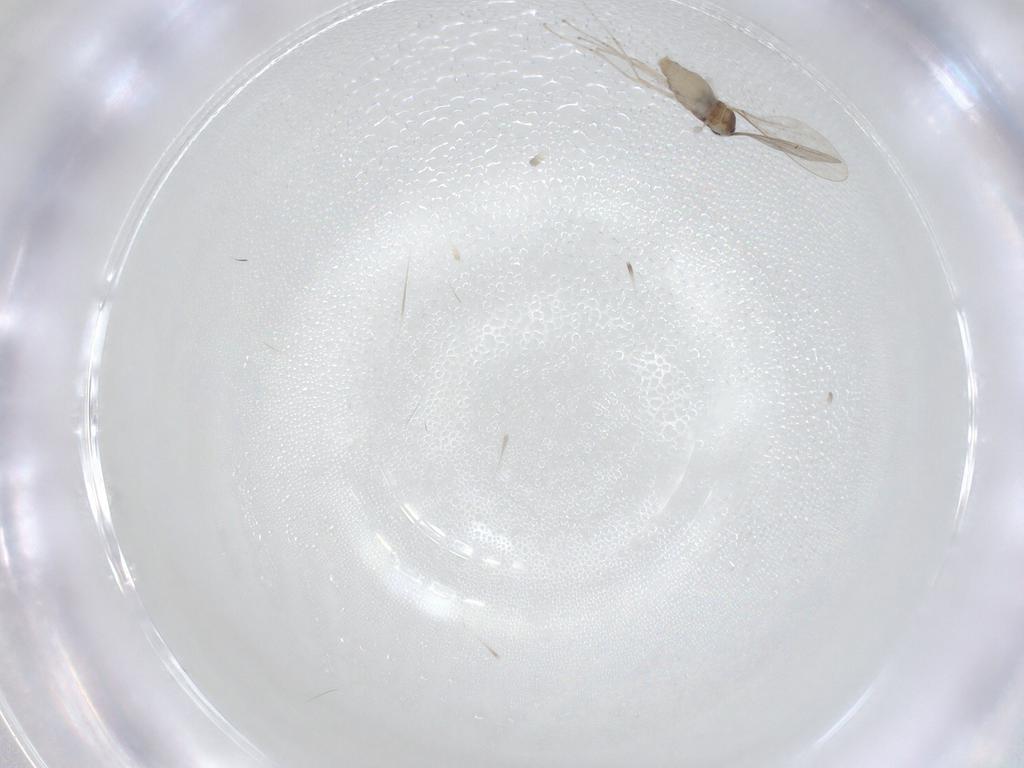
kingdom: Animalia
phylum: Arthropoda
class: Insecta
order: Diptera
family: Cecidomyiidae
